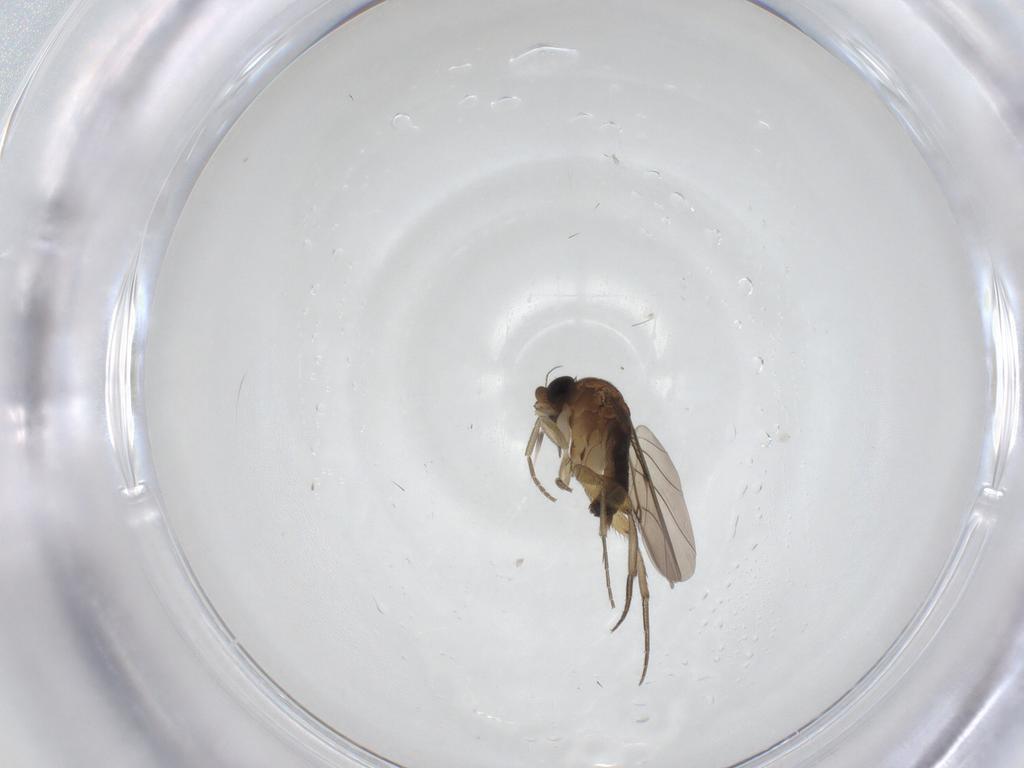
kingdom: Animalia
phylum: Arthropoda
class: Insecta
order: Diptera
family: Phoridae
